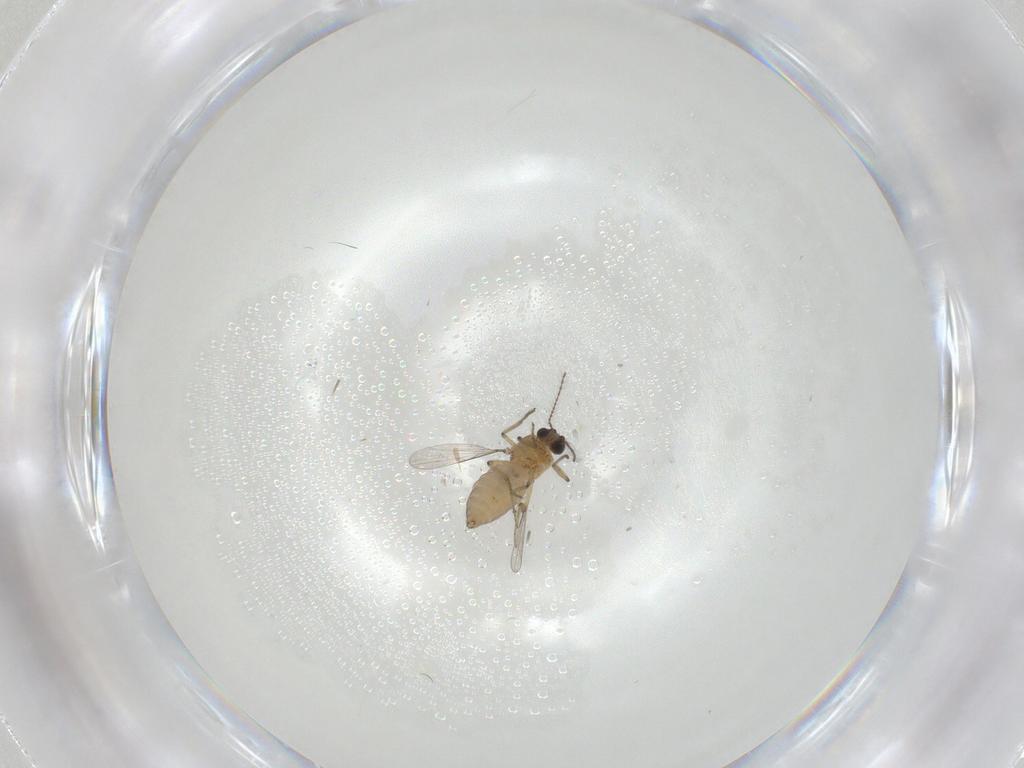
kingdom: Animalia
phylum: Arthropoda
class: Insecta
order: Diptera
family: Ceratopogonidae
